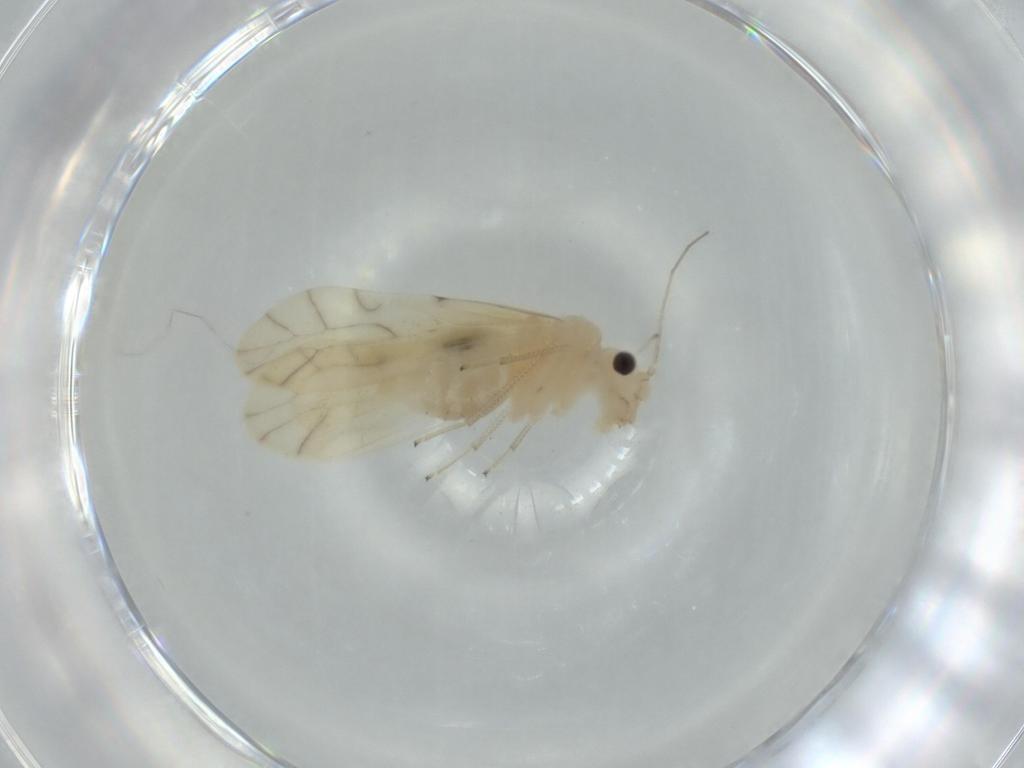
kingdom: Animalia
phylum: Arthropoda
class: Insecta
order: Psocodea
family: Caeciliusidae
